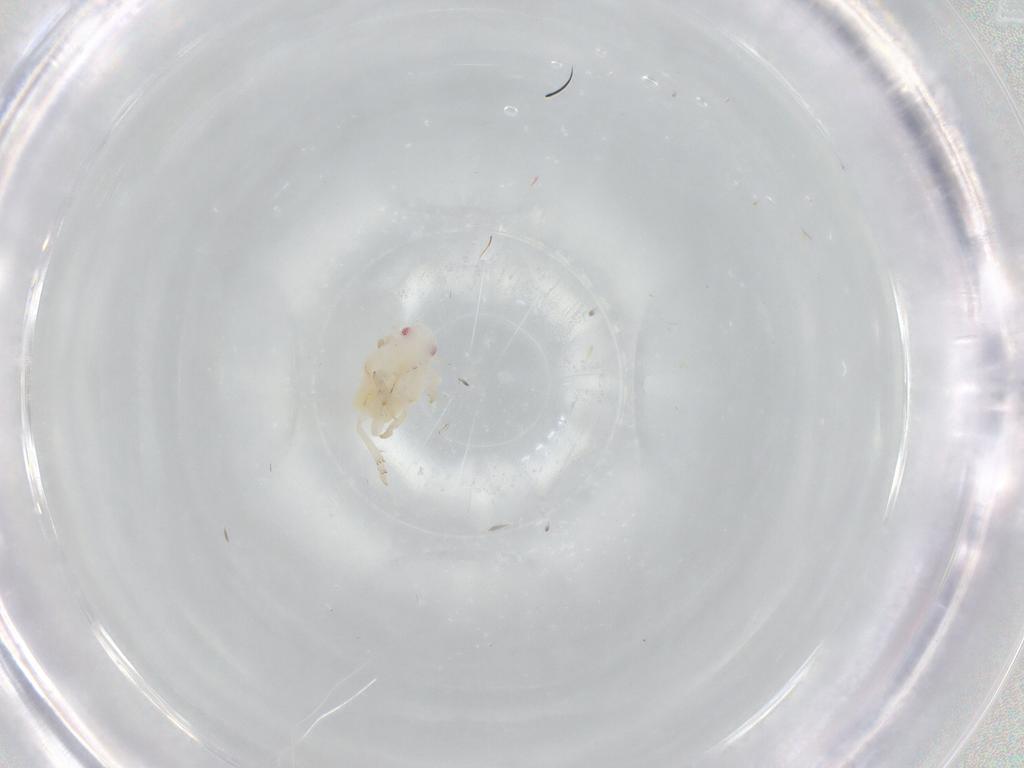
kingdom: Animalia
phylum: Arthropoda
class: Insecta
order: Hemiptera
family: Flatidae
